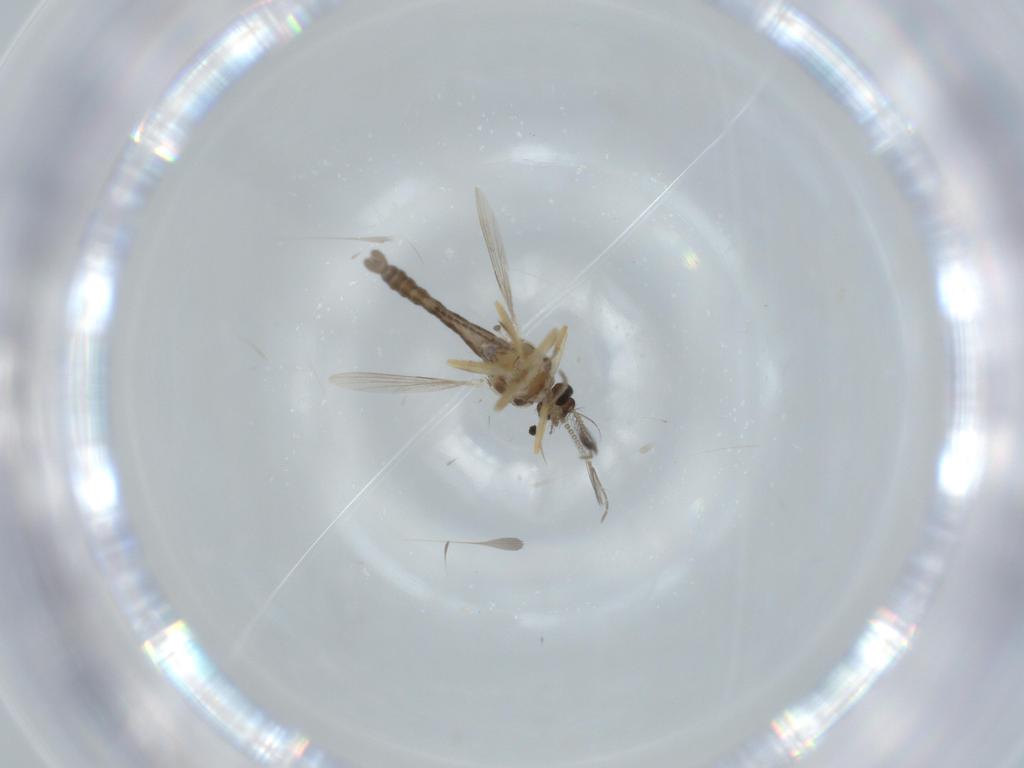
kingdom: Animalia
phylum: Arthropoda
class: Insecta
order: Diptera
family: Ceratopogonidae
